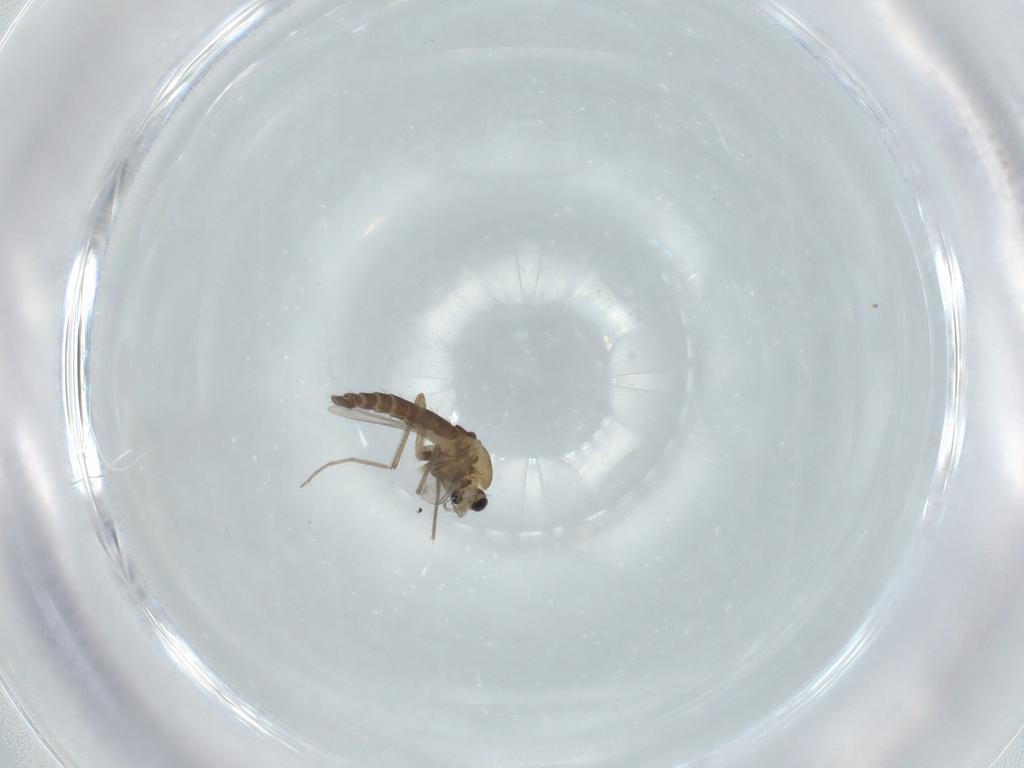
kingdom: Animalia
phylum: Arthropoda
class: Insecta
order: Diptera
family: Chironomidae
